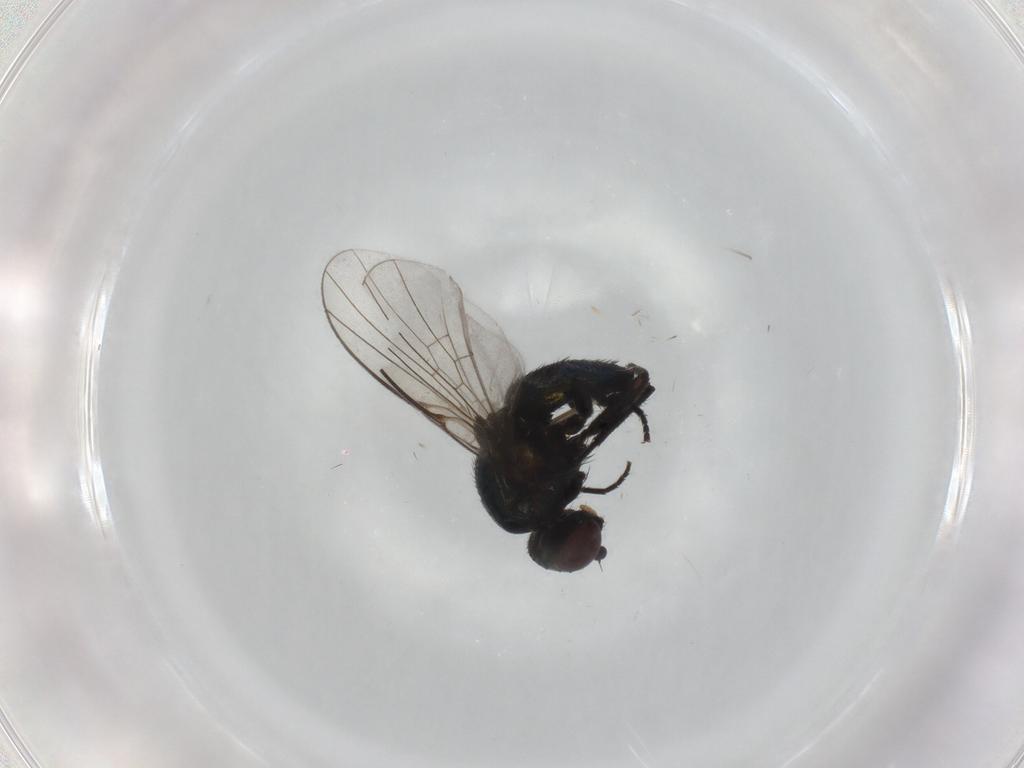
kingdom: Animalia
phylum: Arthropoda
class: Insecta
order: Diptera
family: Agromyzidae
